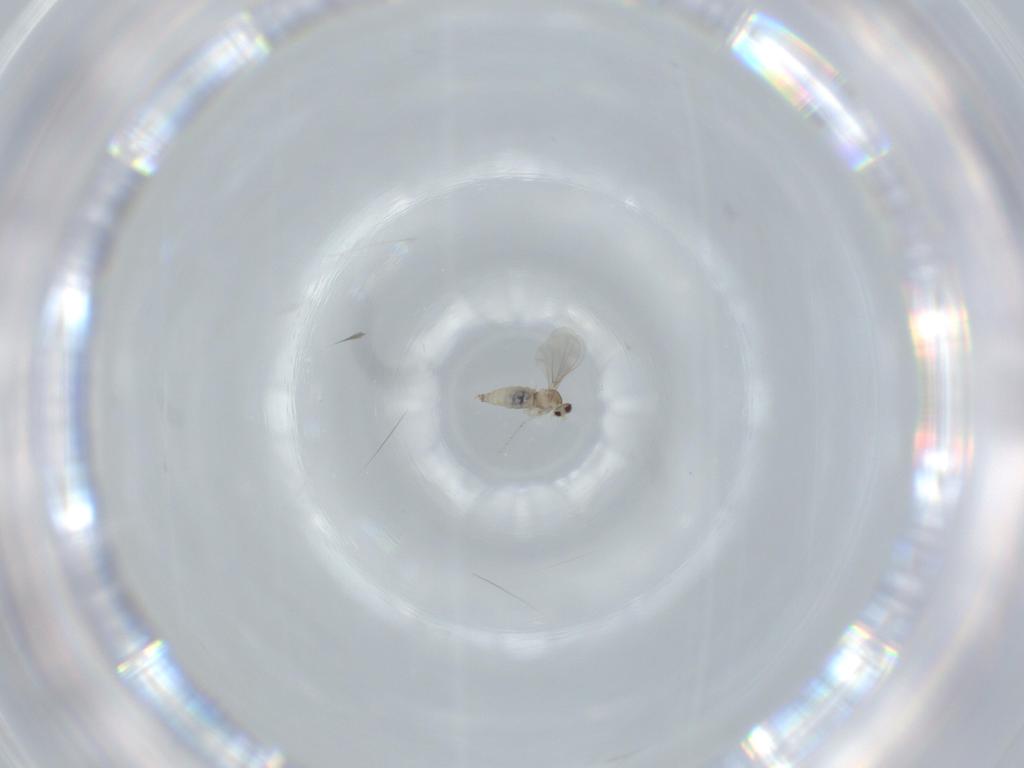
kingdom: Animalia
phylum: Arthropoda
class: Insecta
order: Diptera
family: Cecidomyiidae
